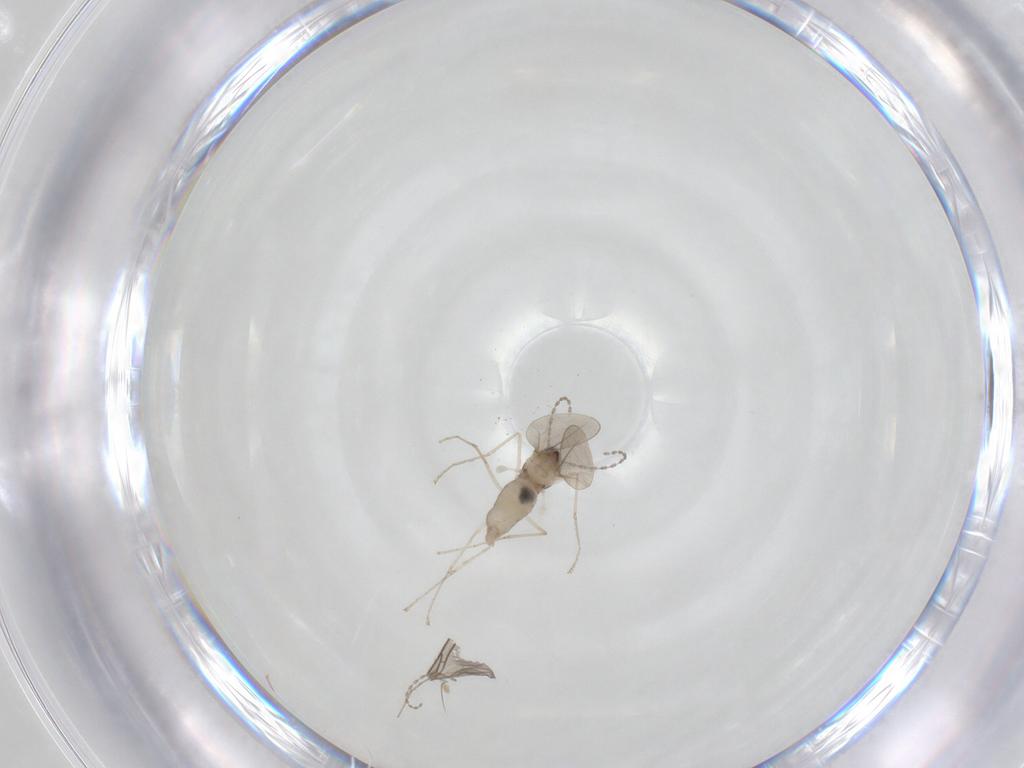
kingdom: Animalia
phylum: Arthropoda
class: Insecta
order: Diptera
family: Cecidomyiidae
